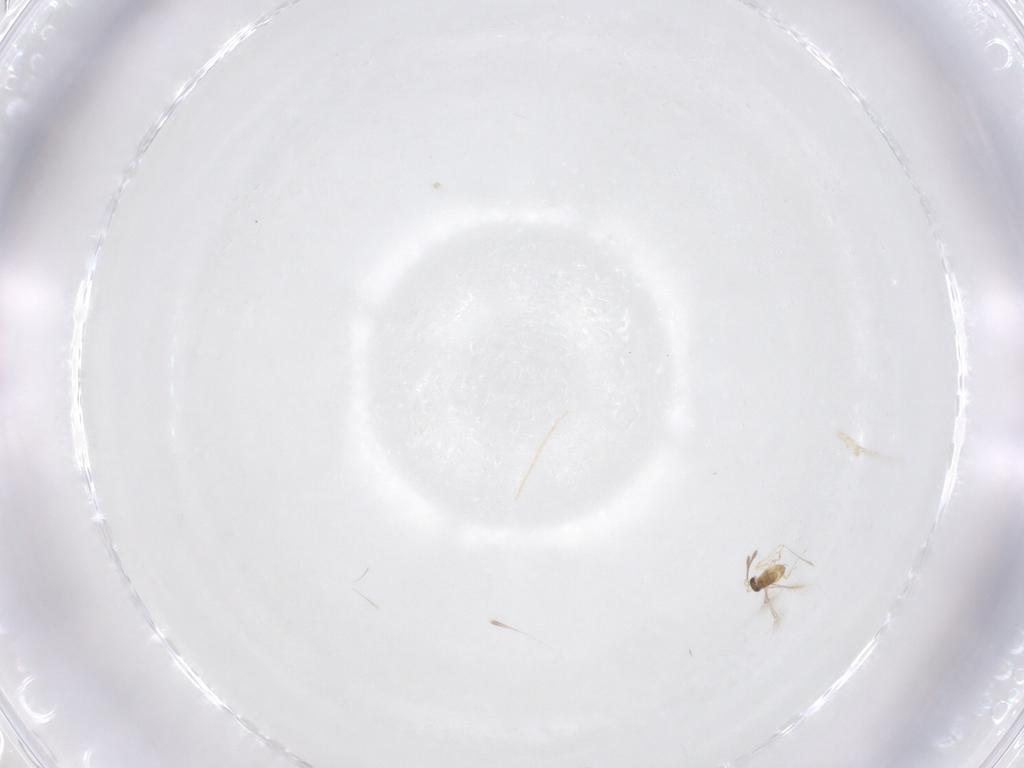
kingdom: Animalia
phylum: Arthropoda
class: Insecta
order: Hymenoptera
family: Mymaridae
